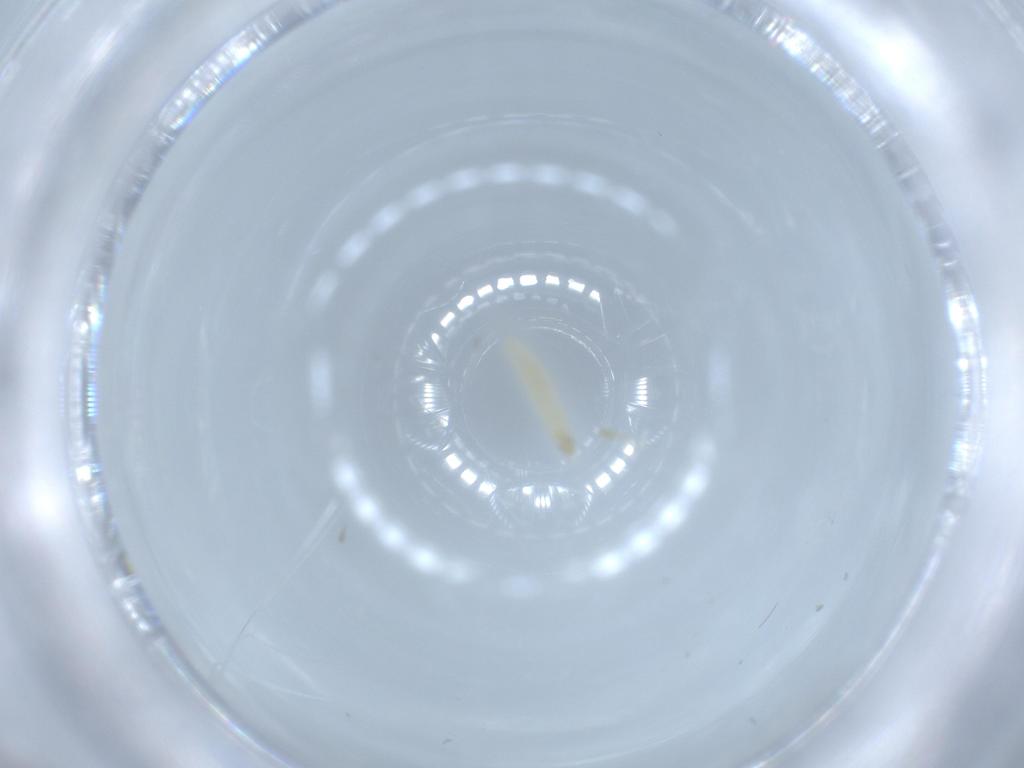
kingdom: Animalia
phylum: Arthropoda
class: Insecta
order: Coleoptera
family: Elateridae
